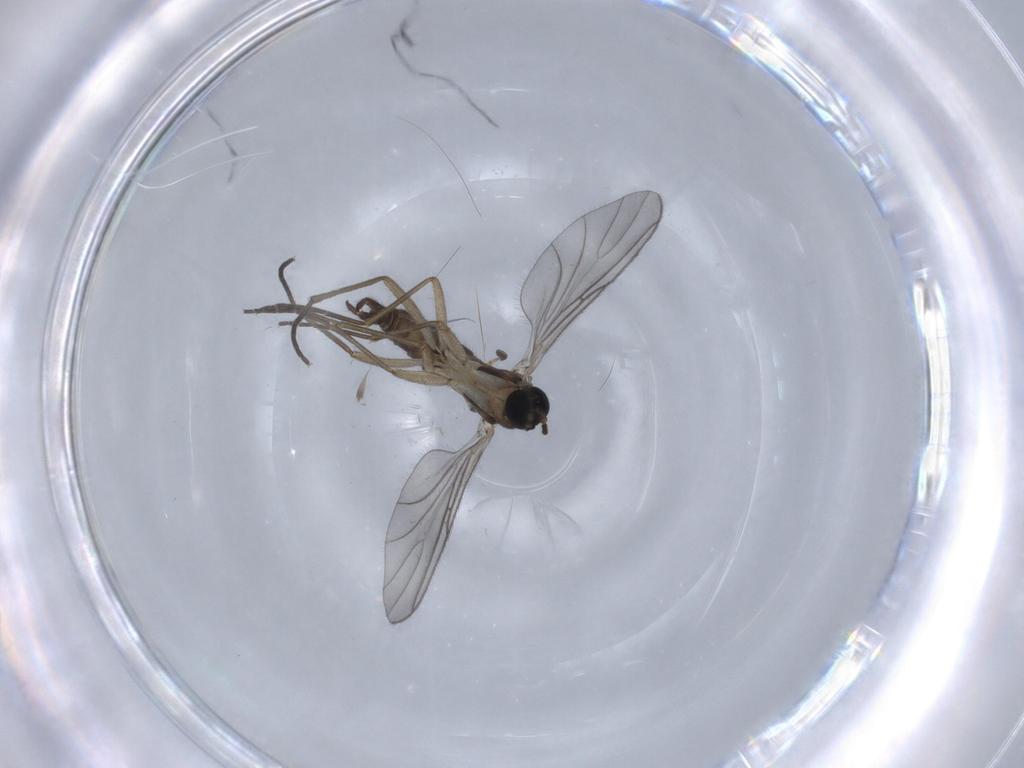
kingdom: Animalia
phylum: Arthropoda
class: Insecta
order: Diptera
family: Sciaridae
